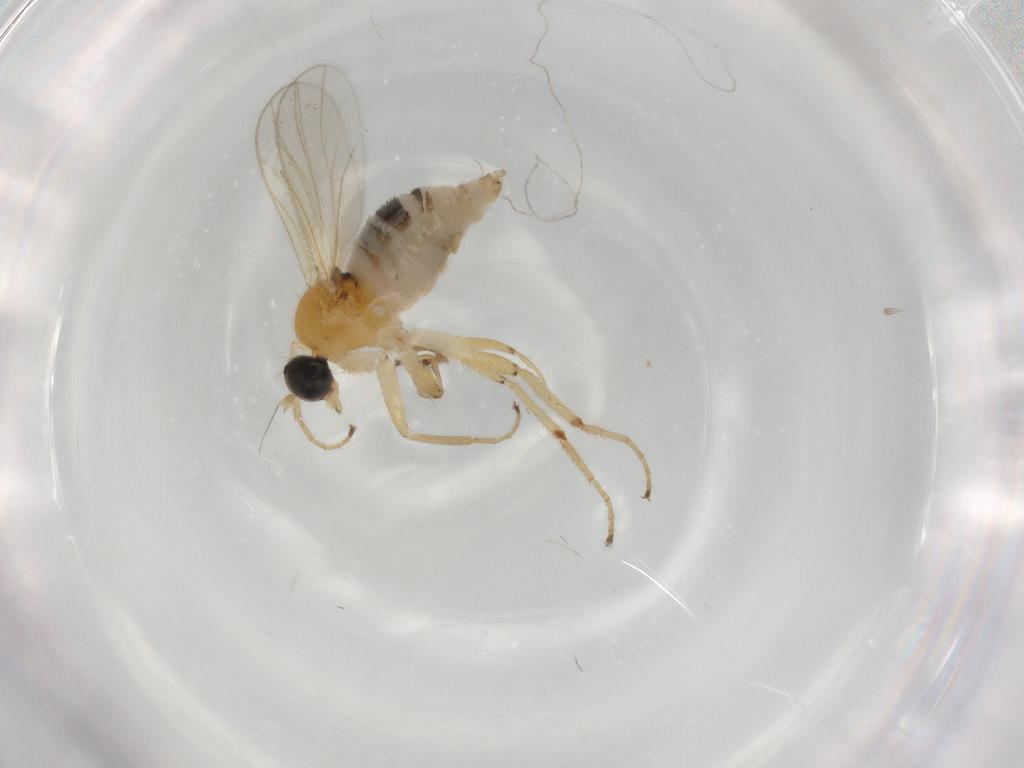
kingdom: Animalia
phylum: Arthropoda
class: Insecta
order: Diptera
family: Hybotidae
